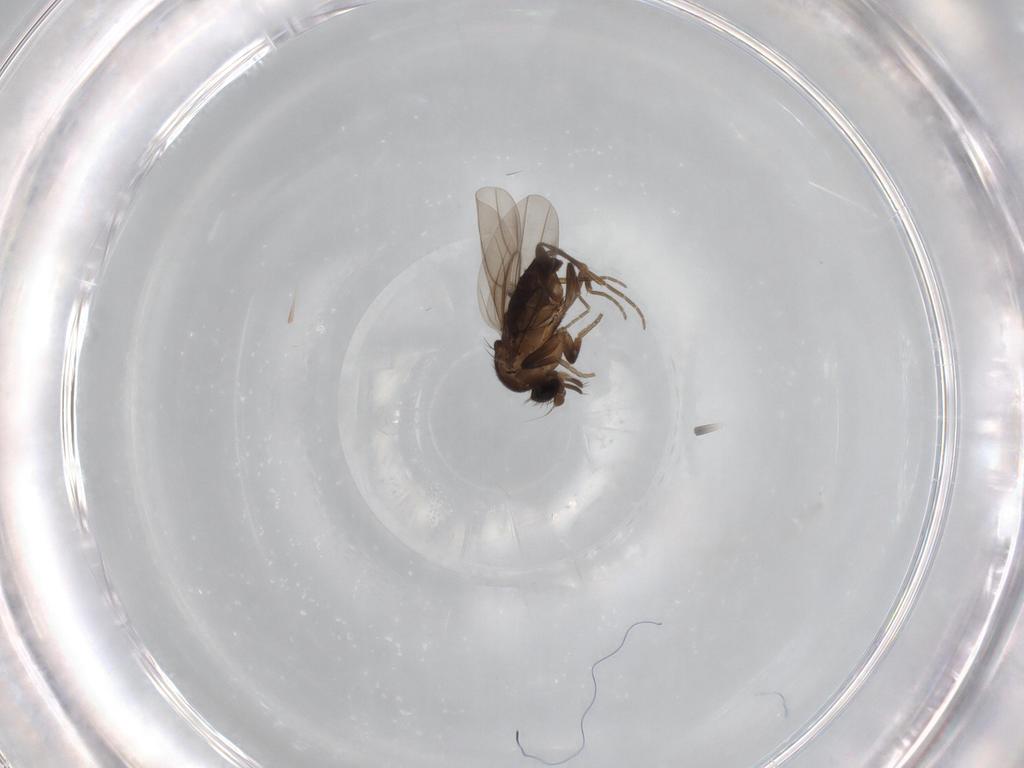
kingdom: Animalia
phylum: Arthropoda
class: Insecta
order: Diptera
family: Phoridae
